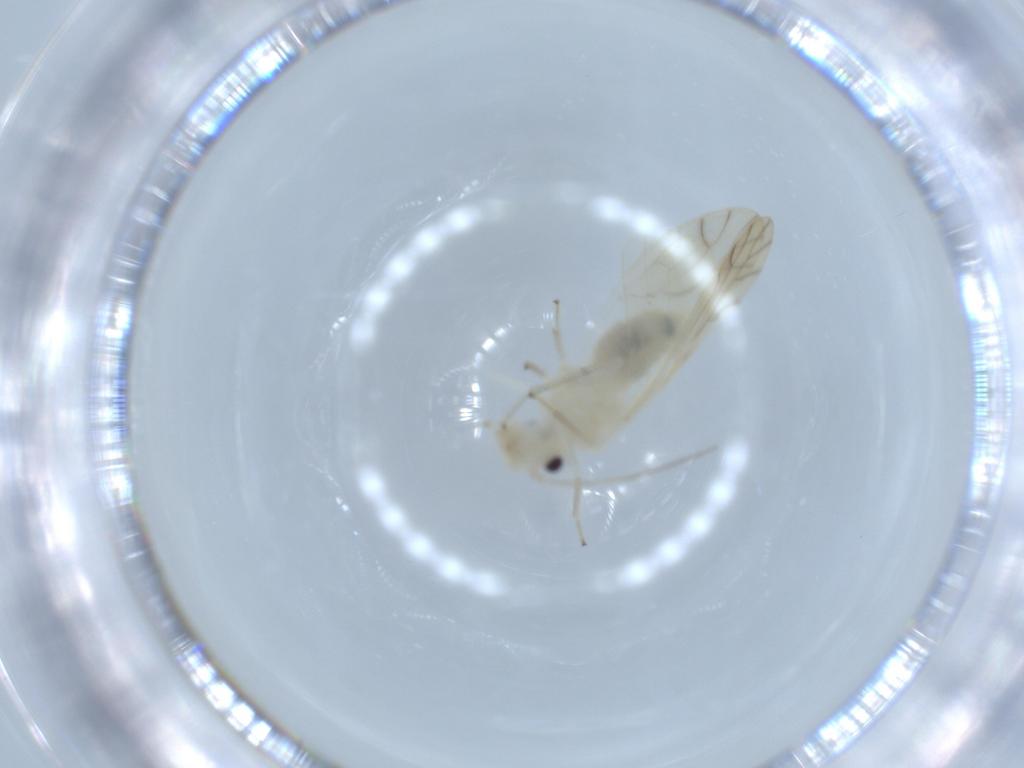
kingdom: Animalia
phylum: Arthropoda
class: Insecta
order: Psocodea
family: Caeciliusidae
